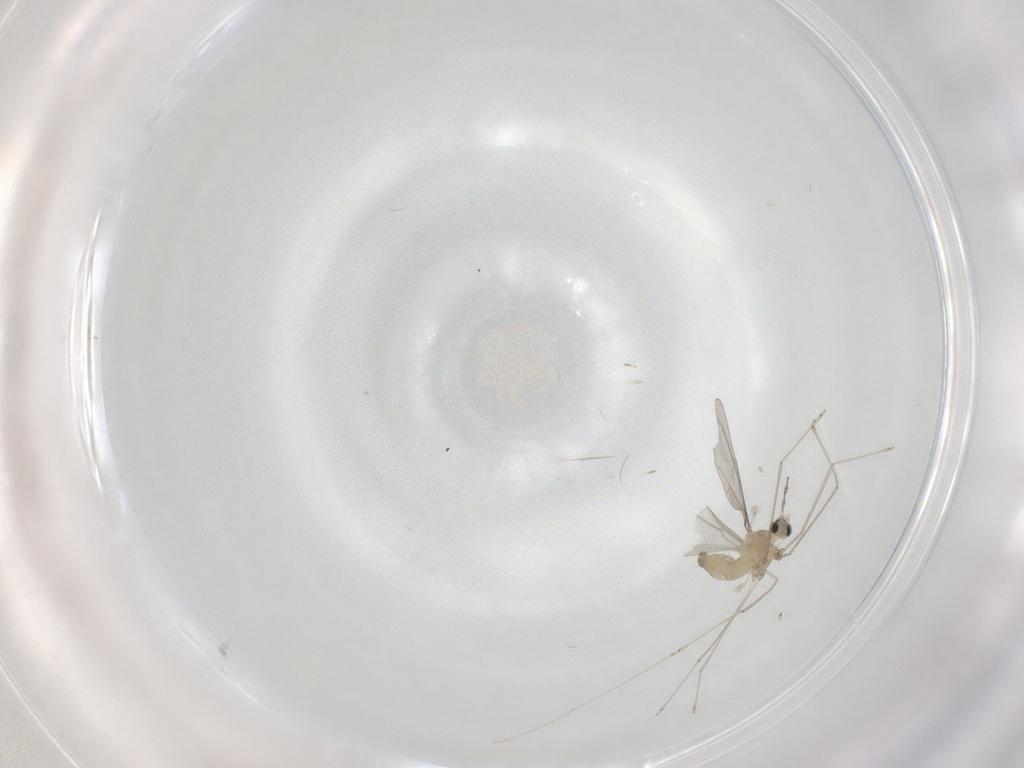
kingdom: Animalia
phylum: Arthropoda
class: Insecta
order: Diptera
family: Cecidomyiidae
